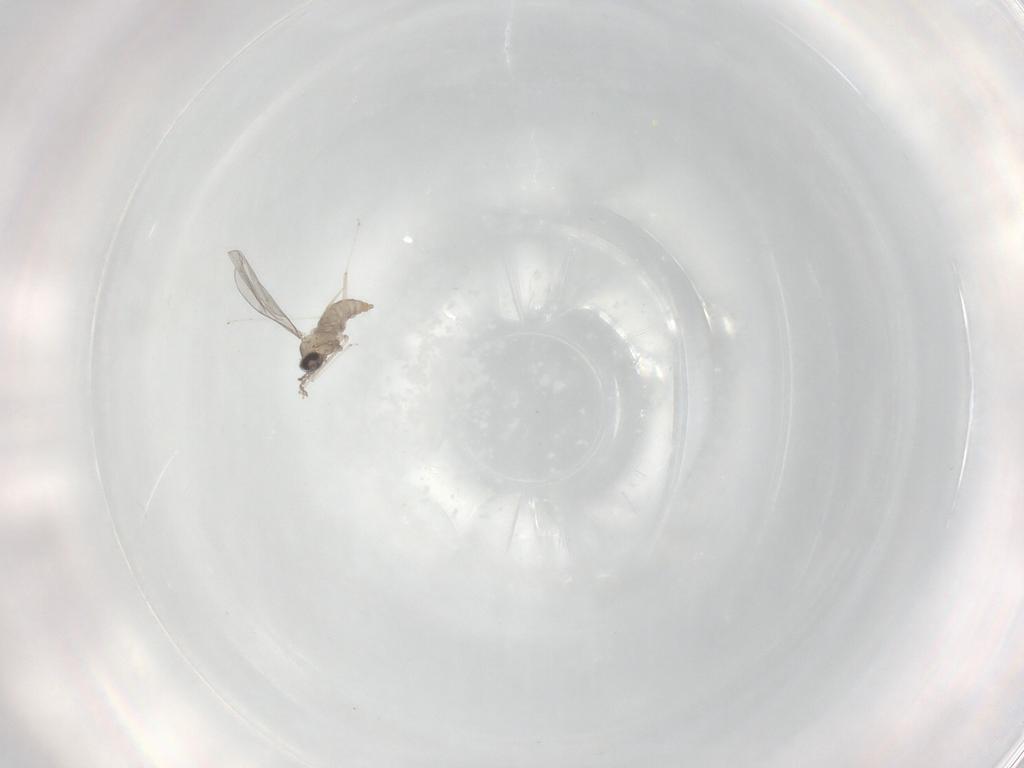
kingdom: Animalia
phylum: Arthropoda
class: Insecta
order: Diptera
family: Cecidomyiidae
